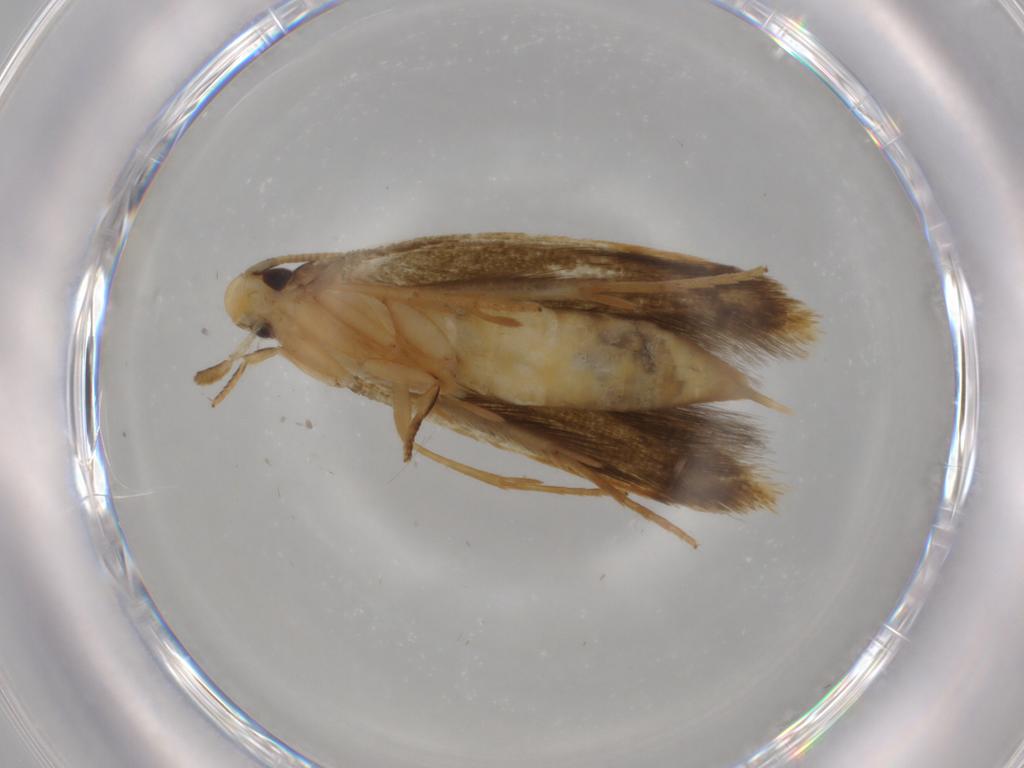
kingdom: Animalia
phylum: Arthropoda
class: Insecta
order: Lepidoptera
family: Tineidae
